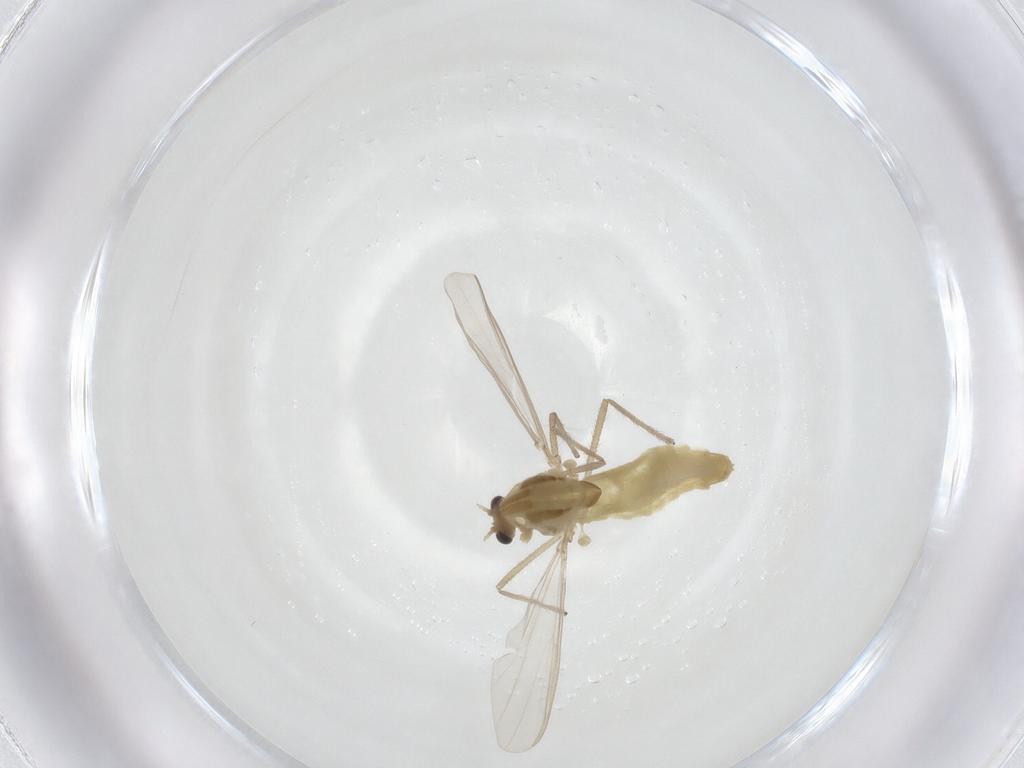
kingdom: Animalia
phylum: Arthropoda
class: Insecta
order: Diptera
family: Chironomidae
